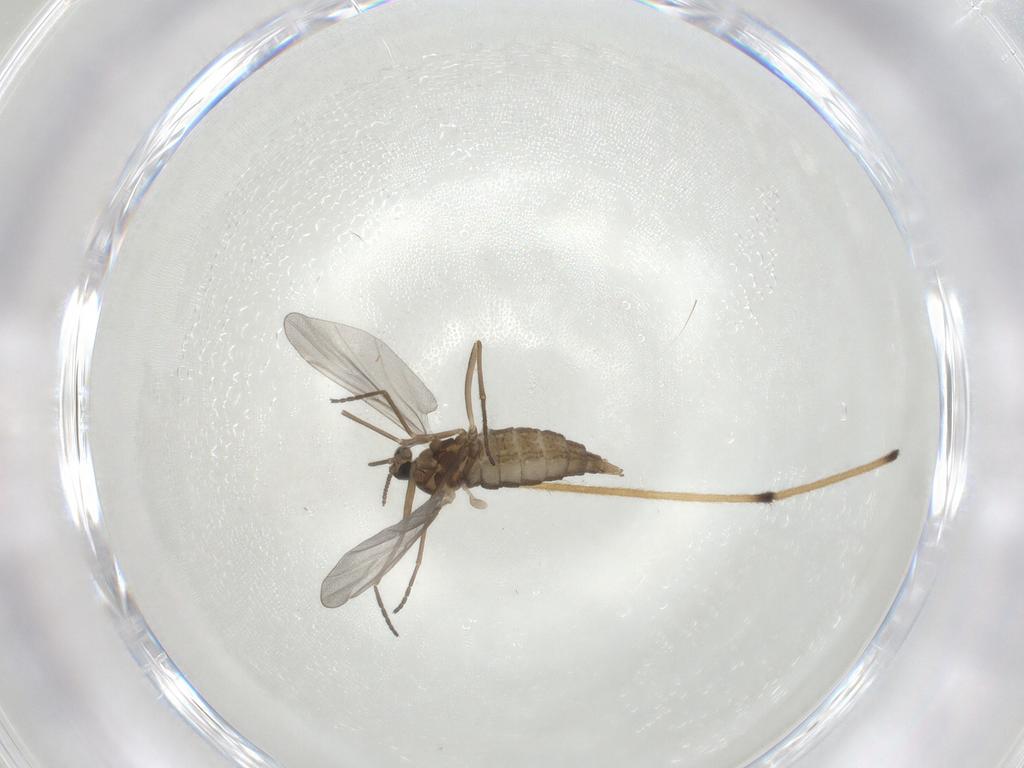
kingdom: Animalia
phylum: Arthropoda
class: Insecta
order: Diptera
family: Cecidomyiidae
